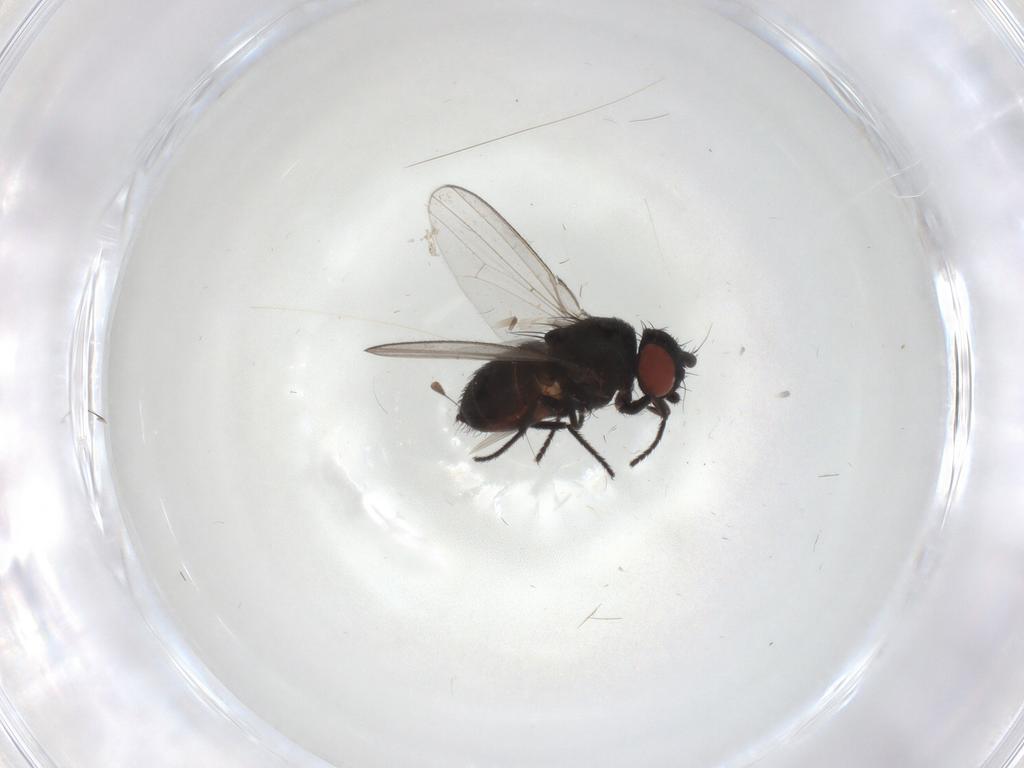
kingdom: Animalia
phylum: Arthropoda
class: Insecta
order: Diptera
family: Milichiidae
